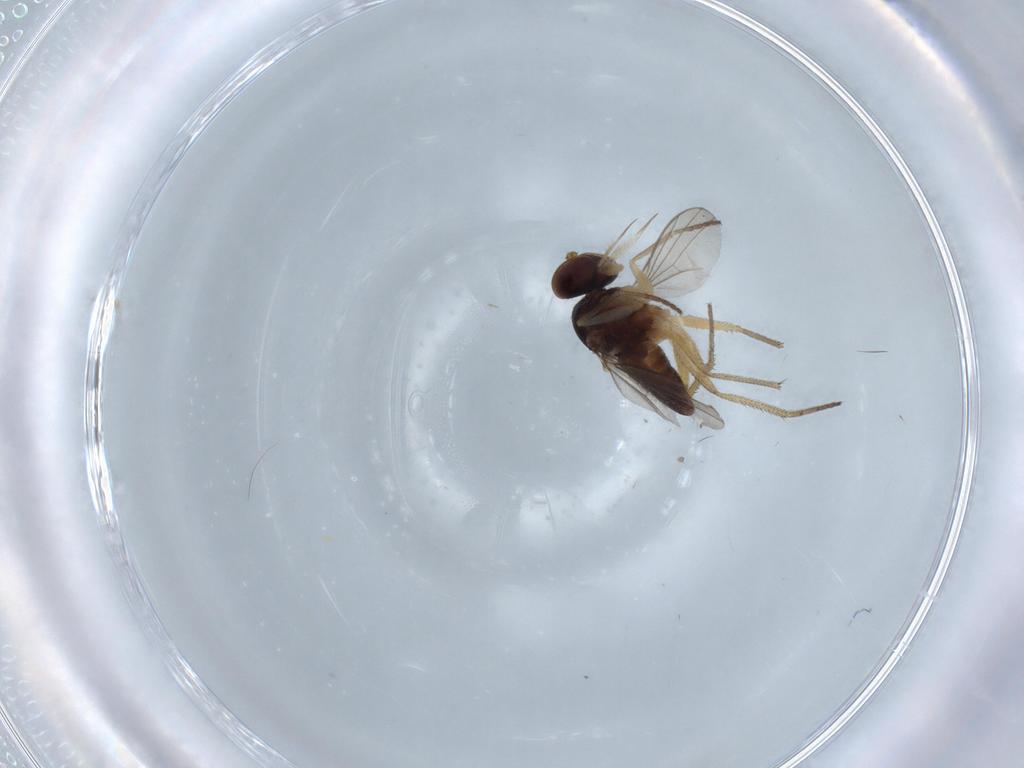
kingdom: Animalia
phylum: Arthropoda
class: Insecta
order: Diptera
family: Dolichopodidae
